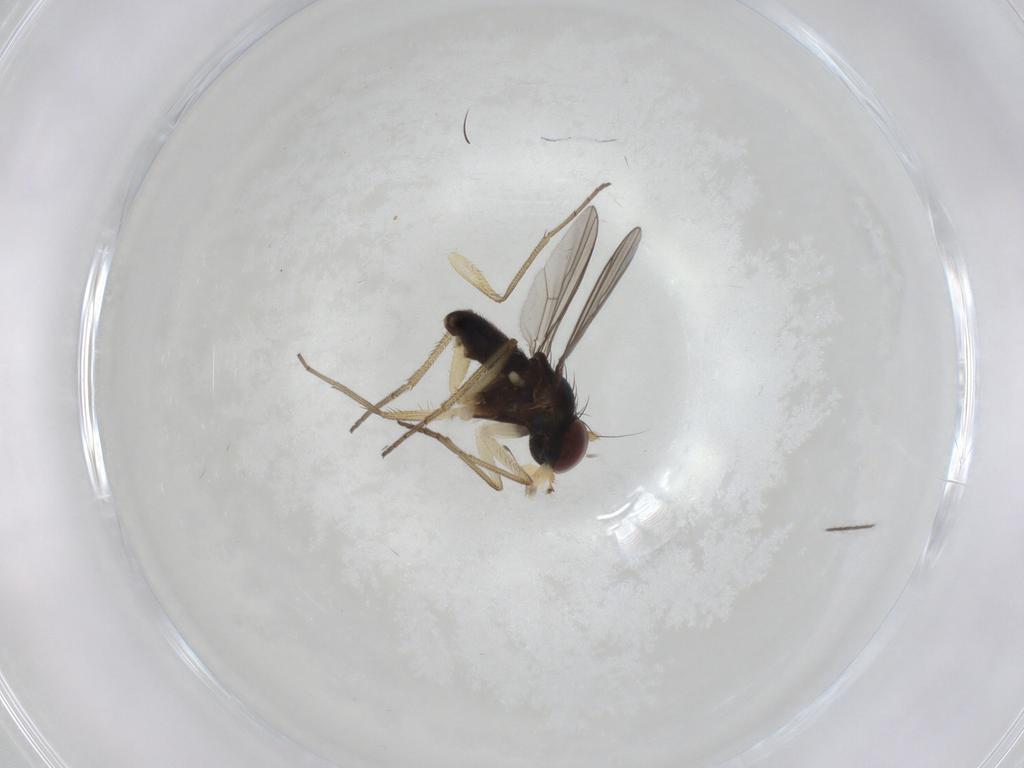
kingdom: Animalia
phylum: Arthropoda
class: Insecta
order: Diptera
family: Dolichopodidae
